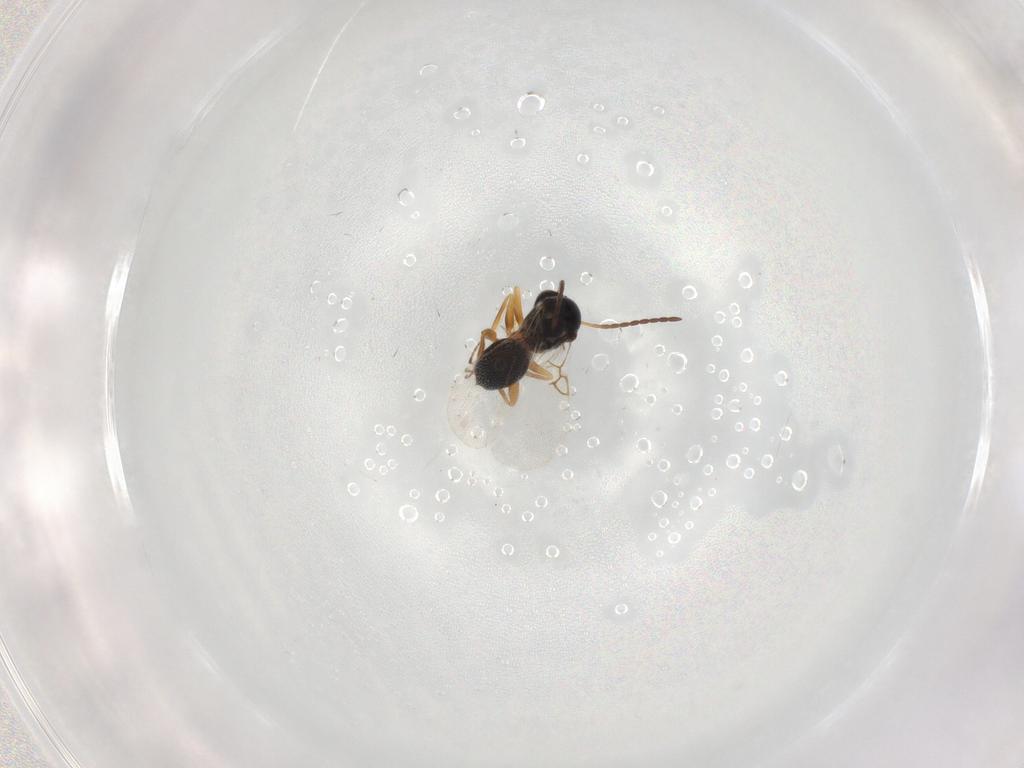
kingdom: Animalia
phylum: Arthropoda
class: Insecta
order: Hymenoptera
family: Figitidae
